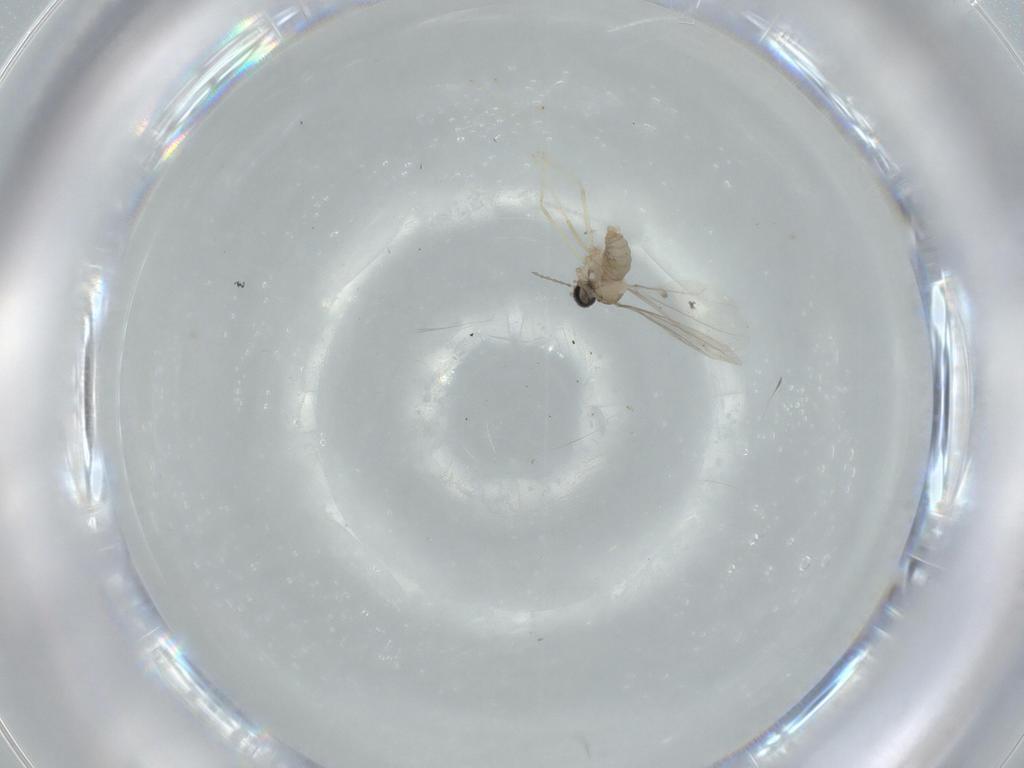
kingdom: Animalia
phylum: Arthropoda
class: Insecta
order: Diptera
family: Cecidomyiidae
